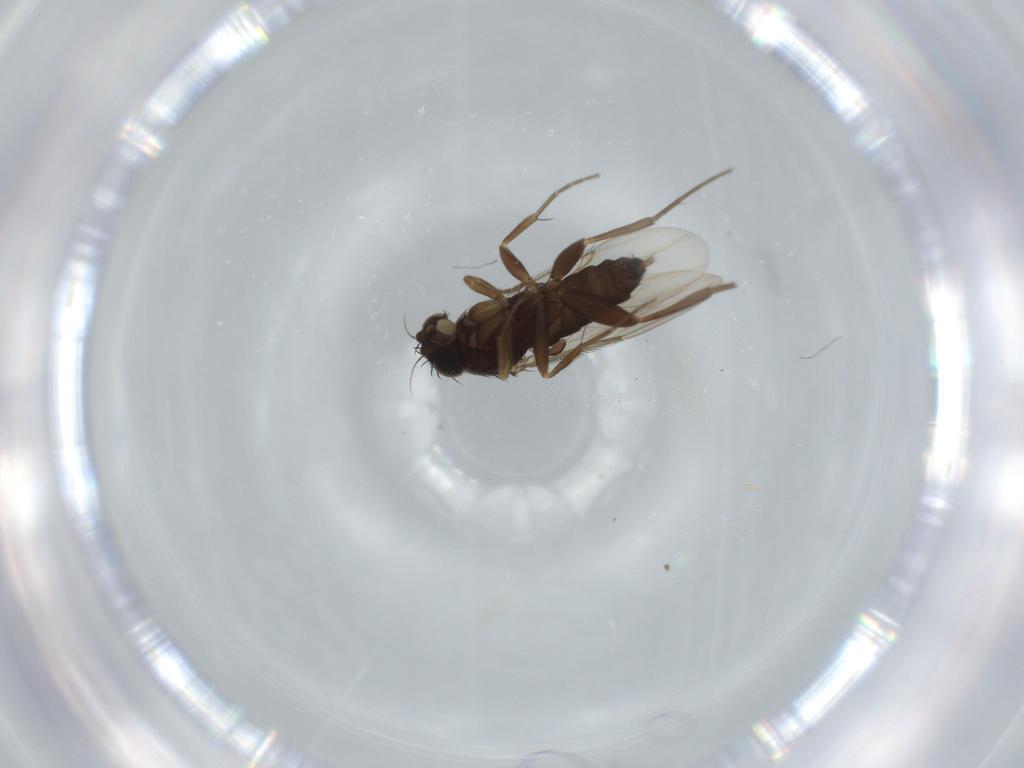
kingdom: Animalia
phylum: Arthropoda
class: Insecta
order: Diptera
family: Phoridae
